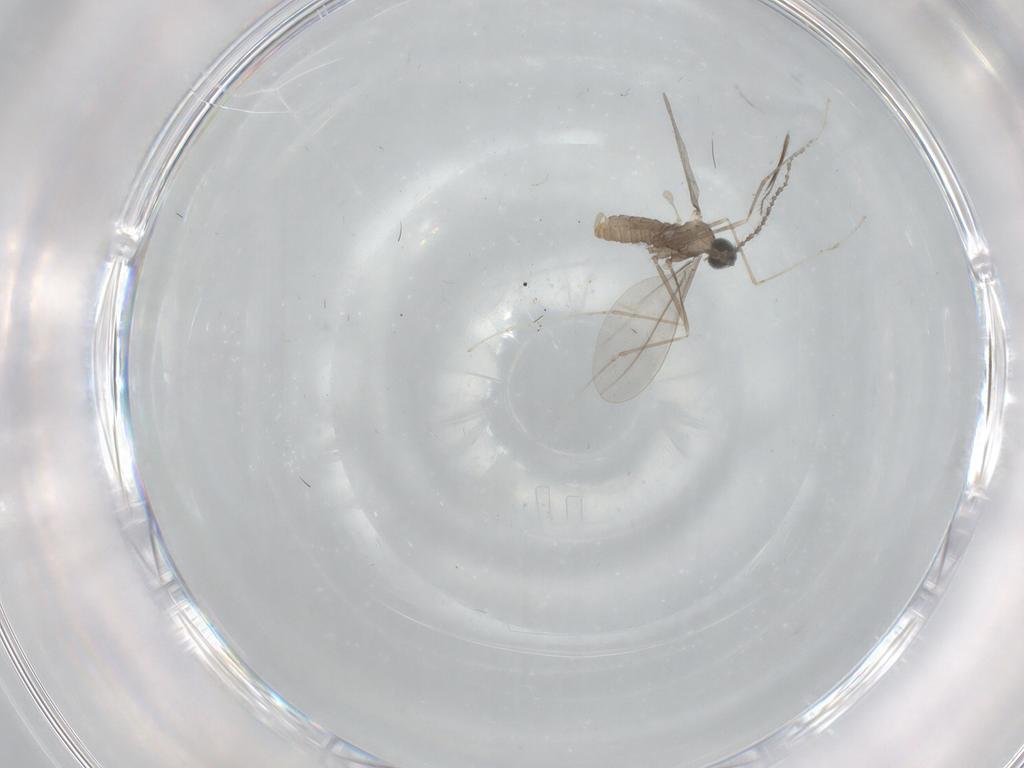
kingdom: Animalia
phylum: Arthropoda
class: Insecta
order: Diptera
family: Cecidomyiidae
